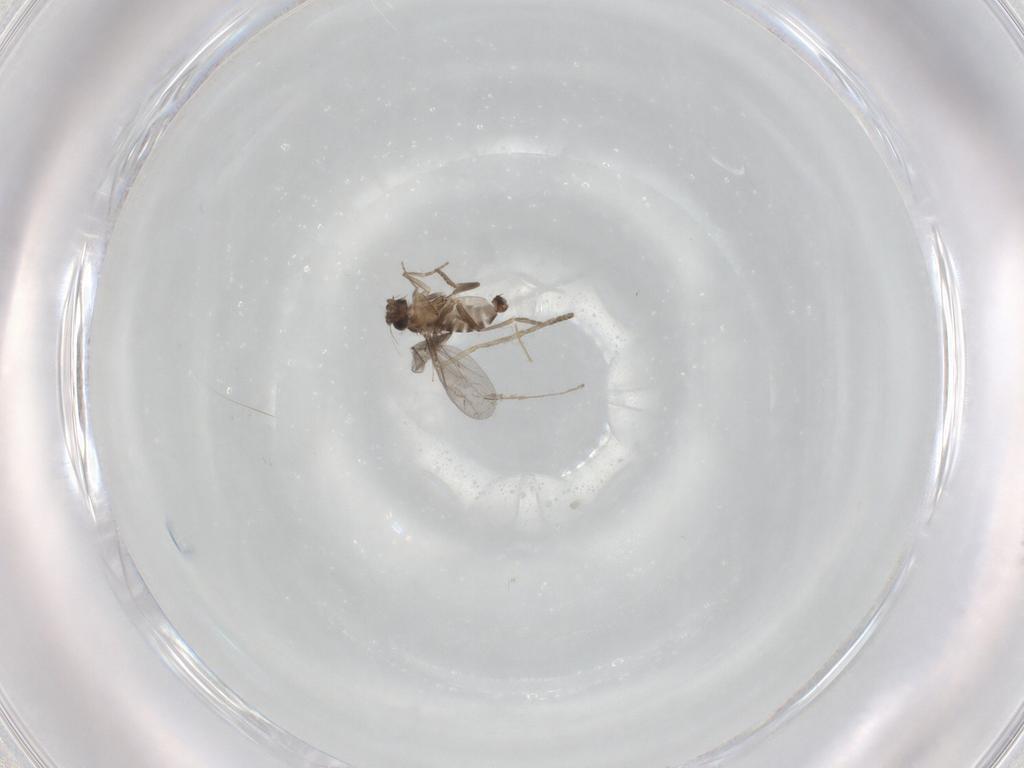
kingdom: Animalia
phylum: Arthropoda
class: Insecta
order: Diptera
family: Chironomidae
